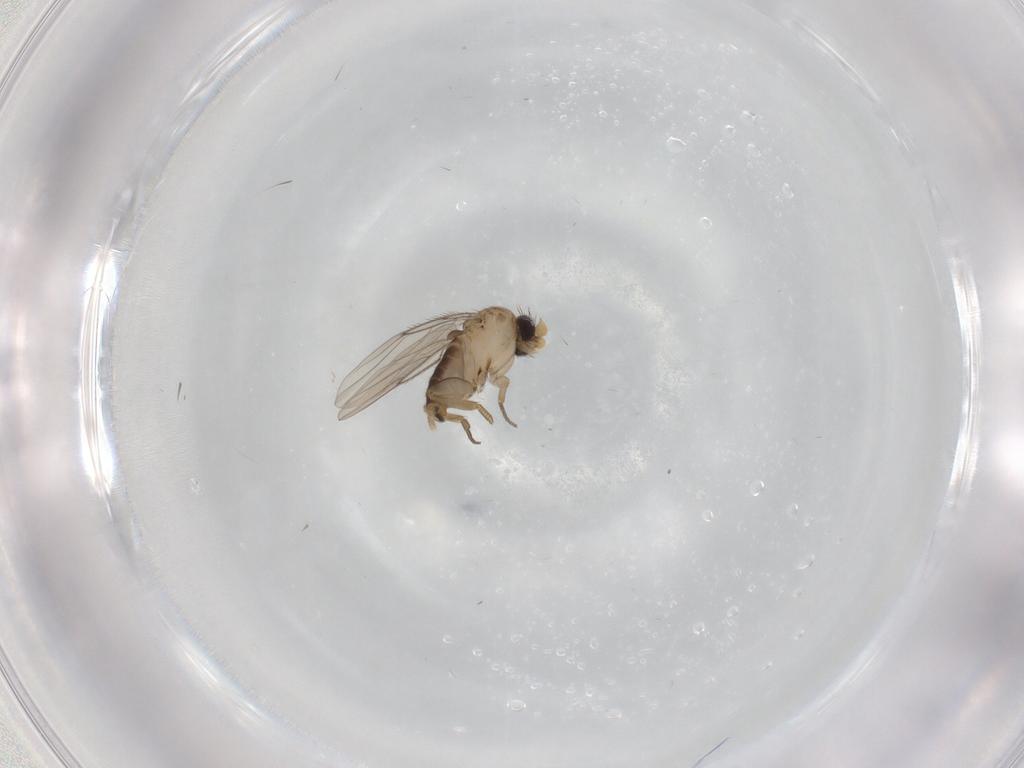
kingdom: Animalia
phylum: Arthropoda
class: Insecta
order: Diptera
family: Phoridae
